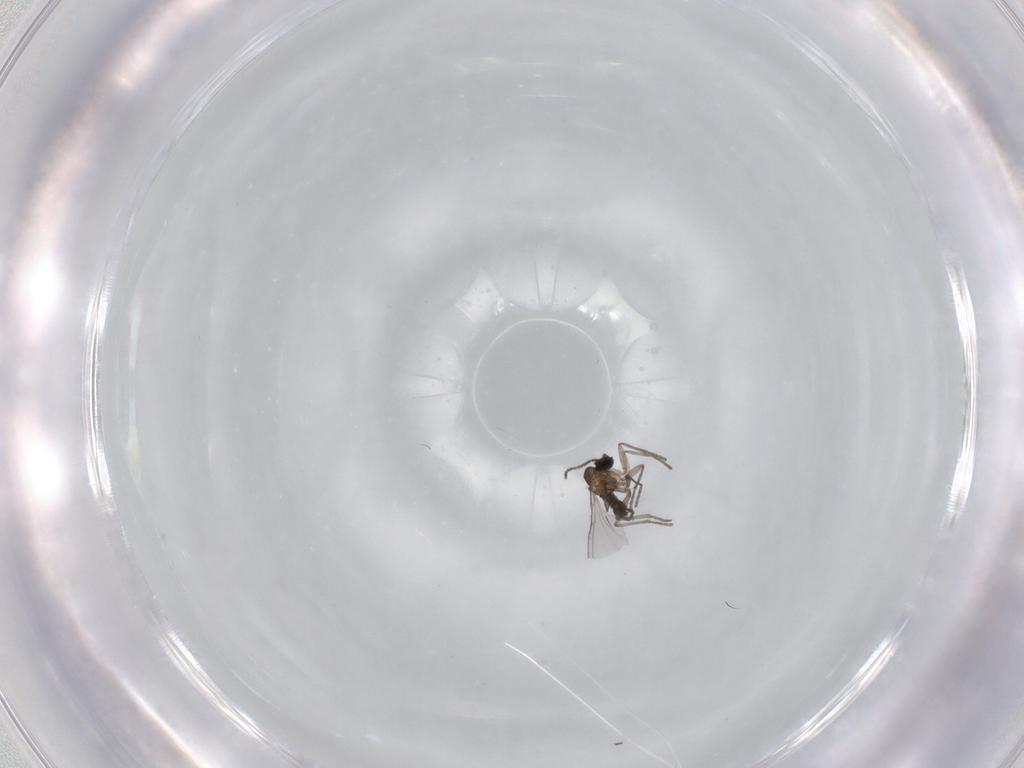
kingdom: Animalia
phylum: Arthropoda
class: Insecta
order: Diptera
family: Sciaridae
